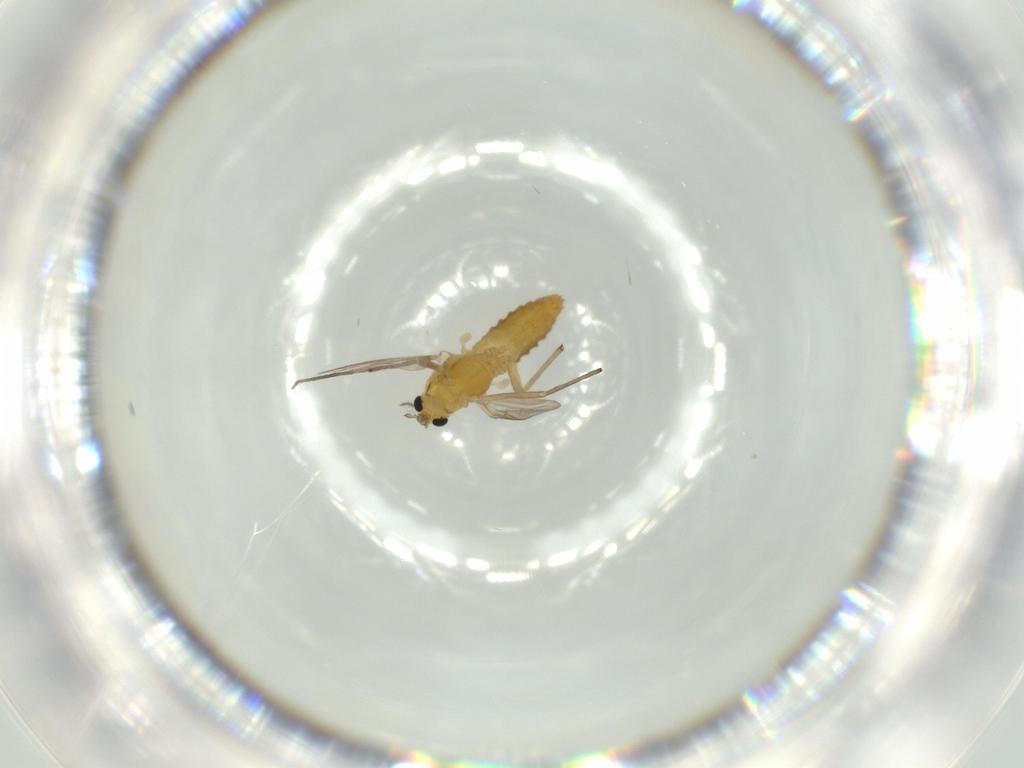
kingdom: Animalia
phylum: Arthropoda
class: Insecta
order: Diptera
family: Chironomidae
